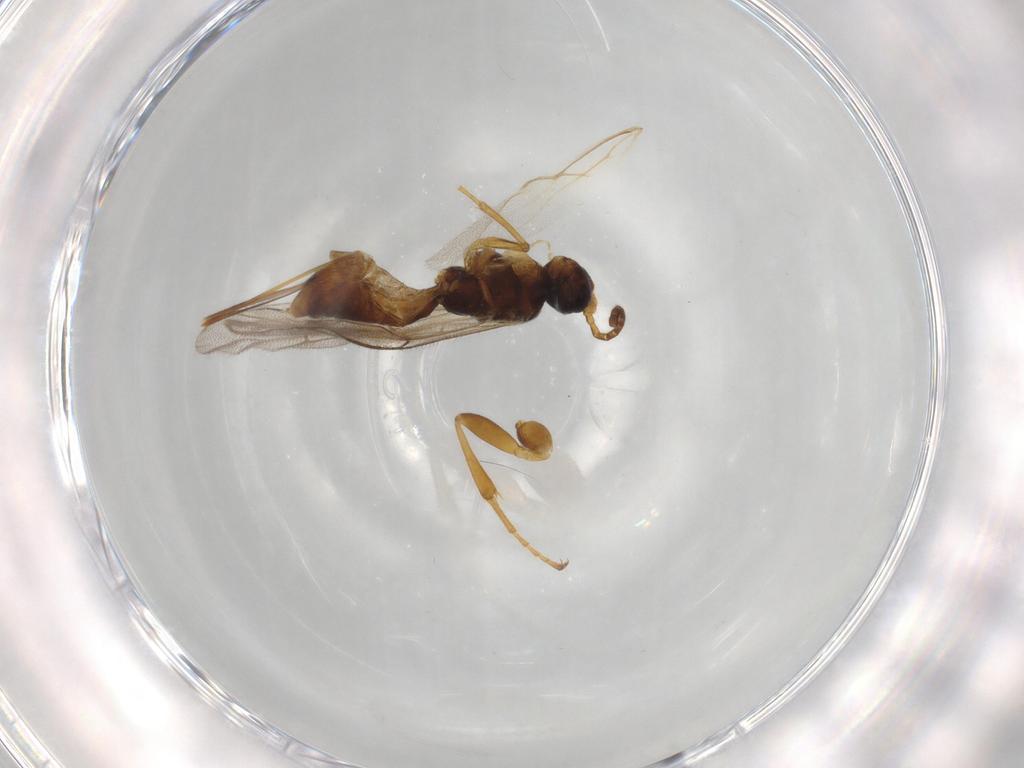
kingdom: Animalia
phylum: Arthropoda
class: Insecta
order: Hymenoptera
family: Ichneumonidae
